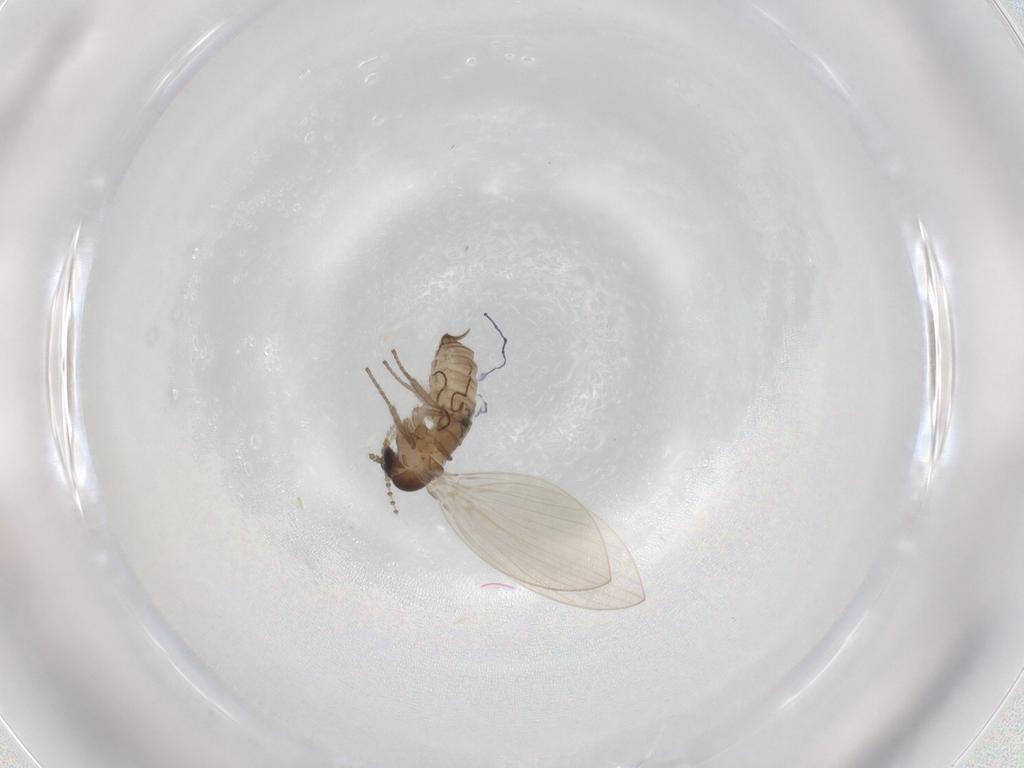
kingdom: Animalia
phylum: Arthropoda
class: Insecta
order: Diptera
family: Psychodidae
